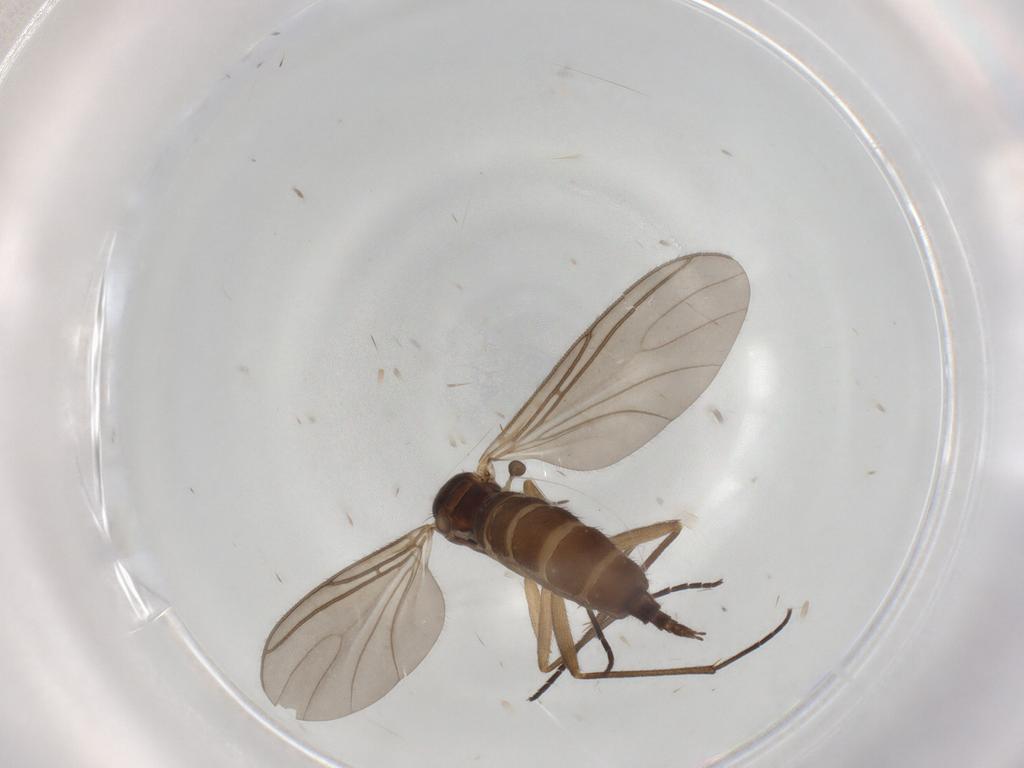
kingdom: Animalia
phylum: Arthropoda
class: Insecta
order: Diptera
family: Sciaridae
